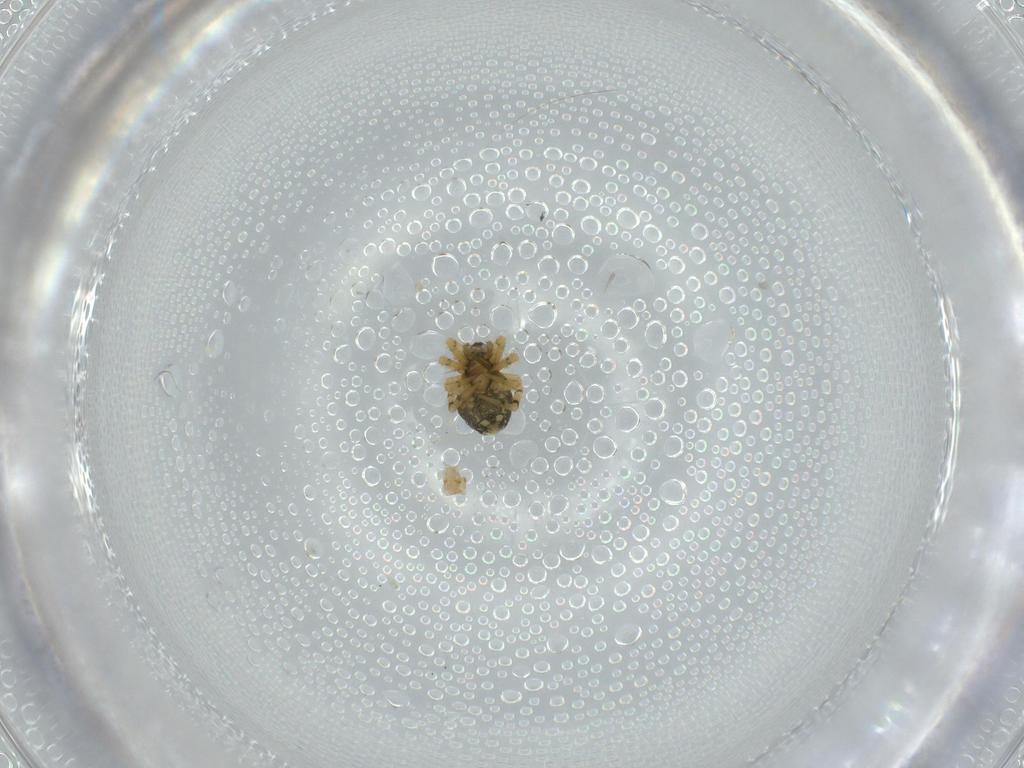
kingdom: Animalia
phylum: Arthropoda
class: Arachnida
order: Araneae
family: Theridiidae
